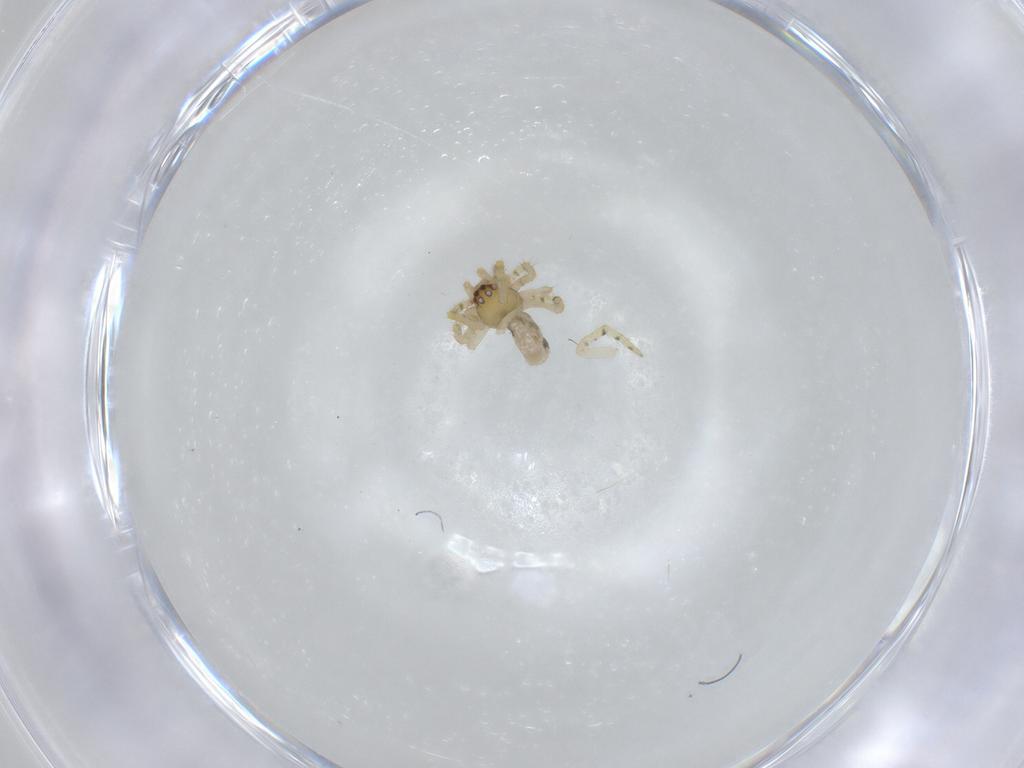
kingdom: Animalia
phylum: Arthropoda
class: Arachnida
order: Araneae
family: Theridiidae
